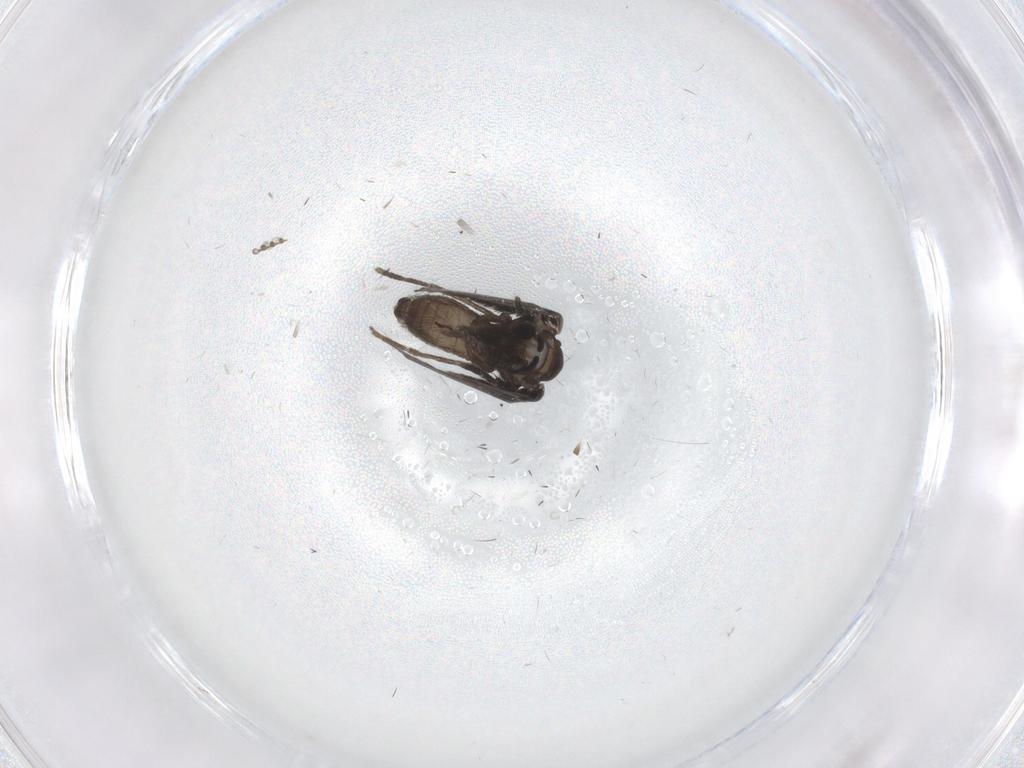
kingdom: Animalia
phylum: Arthropoda
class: Insecta
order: Diptera
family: Psychodidae
